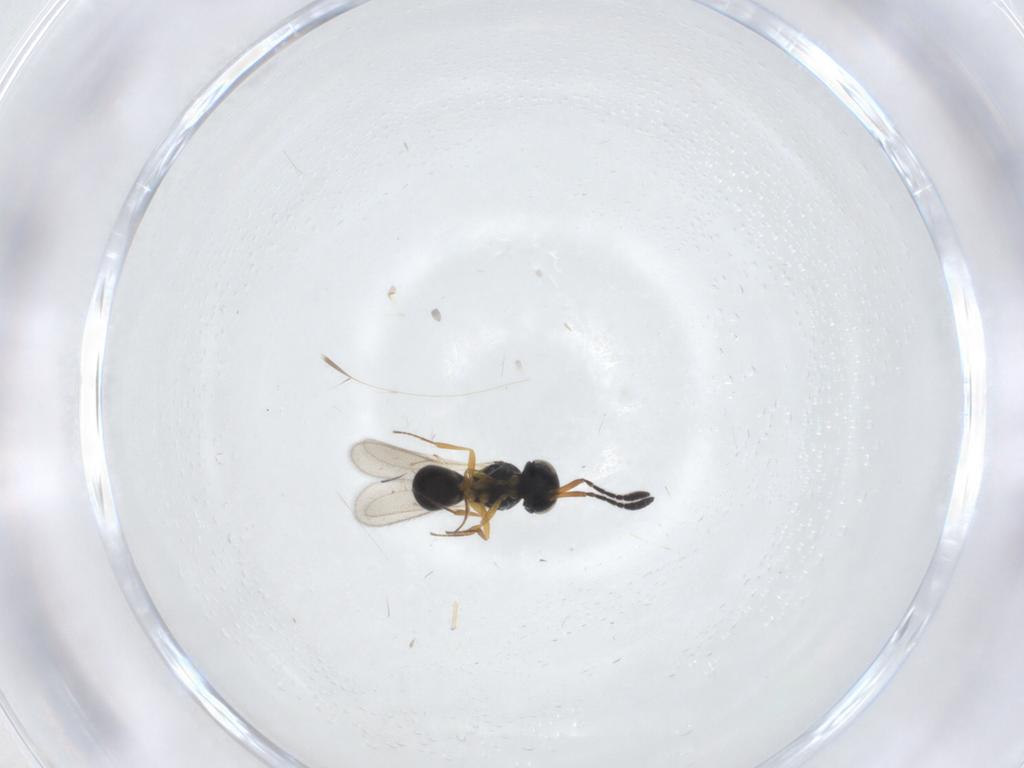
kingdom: Animalia
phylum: Arthropoda
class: Insecta
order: Hymenoptera
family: Scelionidae
